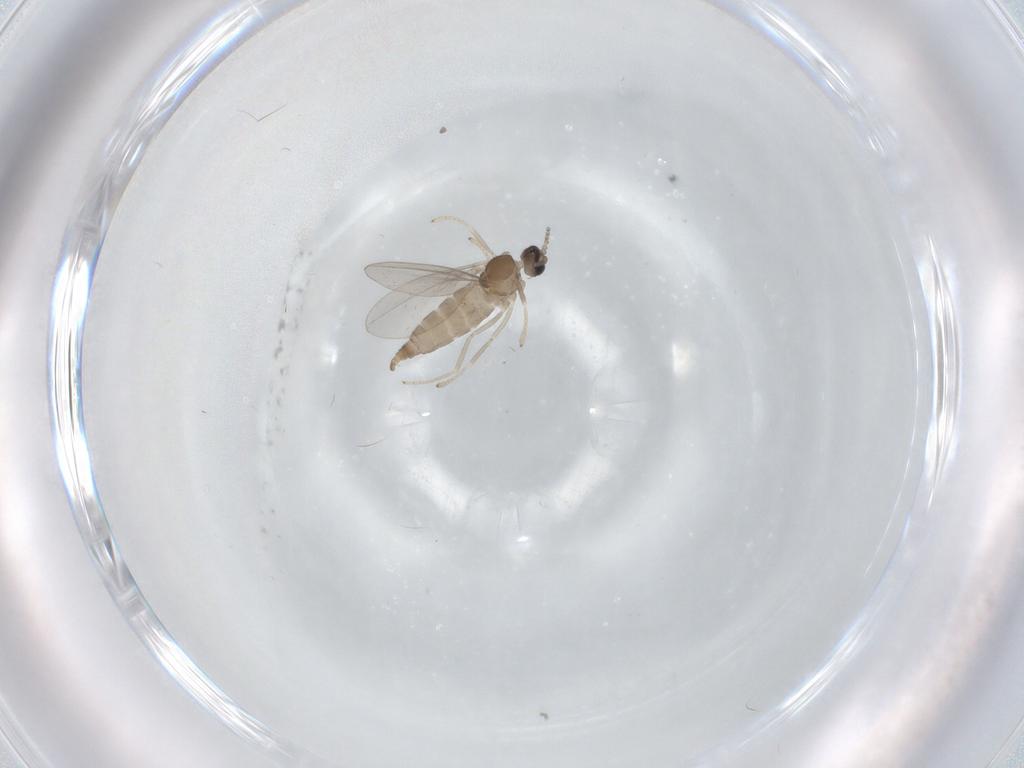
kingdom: Animalia
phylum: Arthropoda
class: Insecta
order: Diptera
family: Cecidomyiidae
